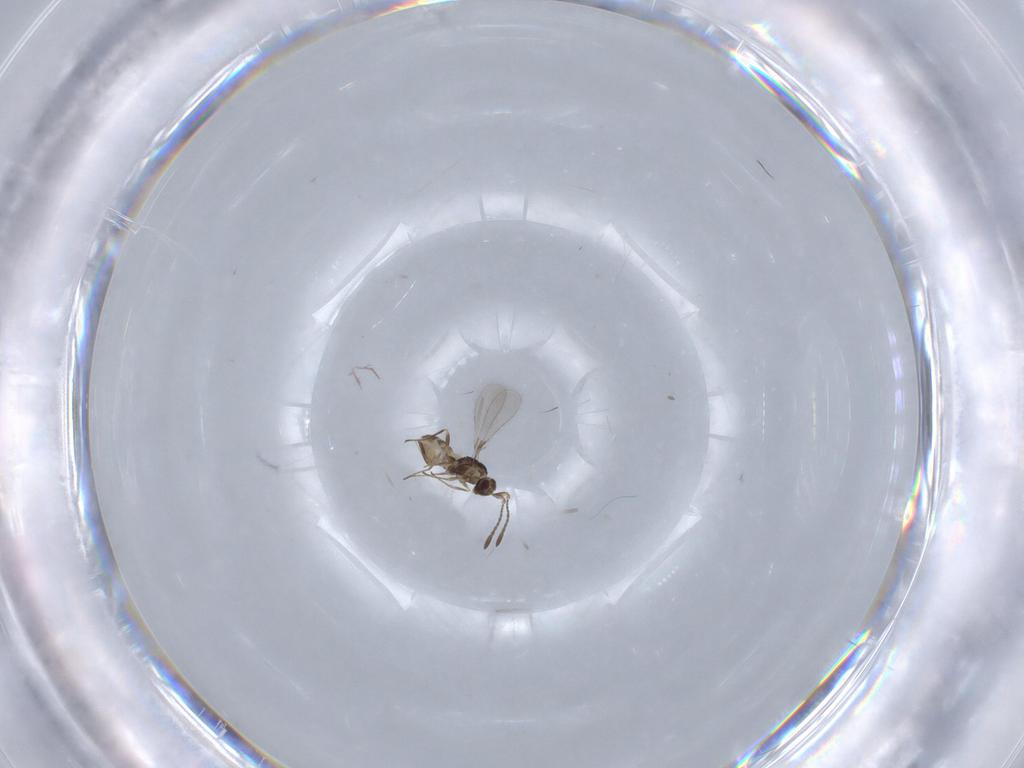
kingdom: Animalia
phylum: Arthropoda
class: Insecta
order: Hymenoptera
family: Mymaridae
